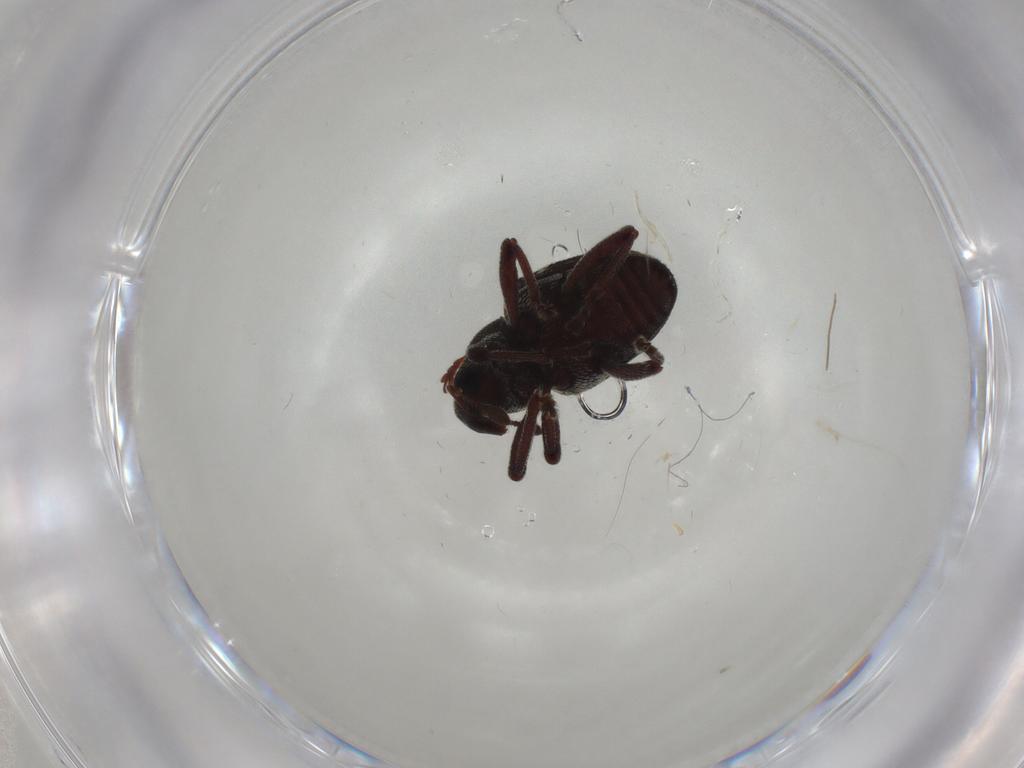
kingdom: Animalia
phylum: Arthropoda
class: Insecta
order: Coleoptera
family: Curculionidae
